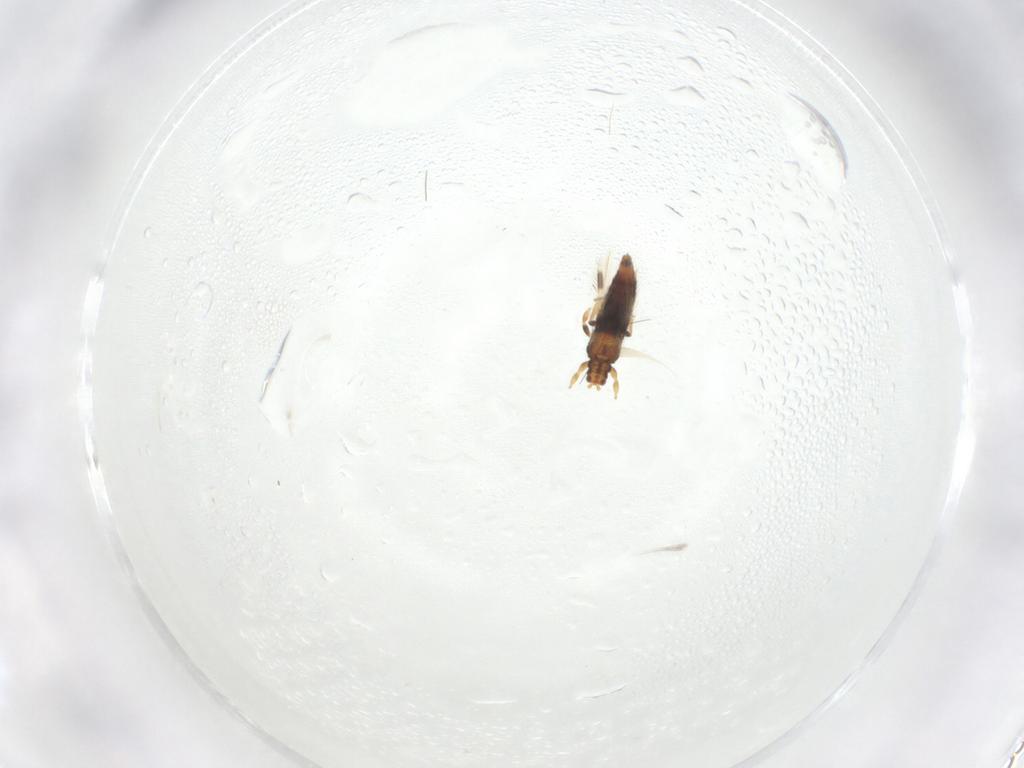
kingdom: Animalia
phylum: Arthropoda
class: Insecta
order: Thysanoptera
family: Thripidae
